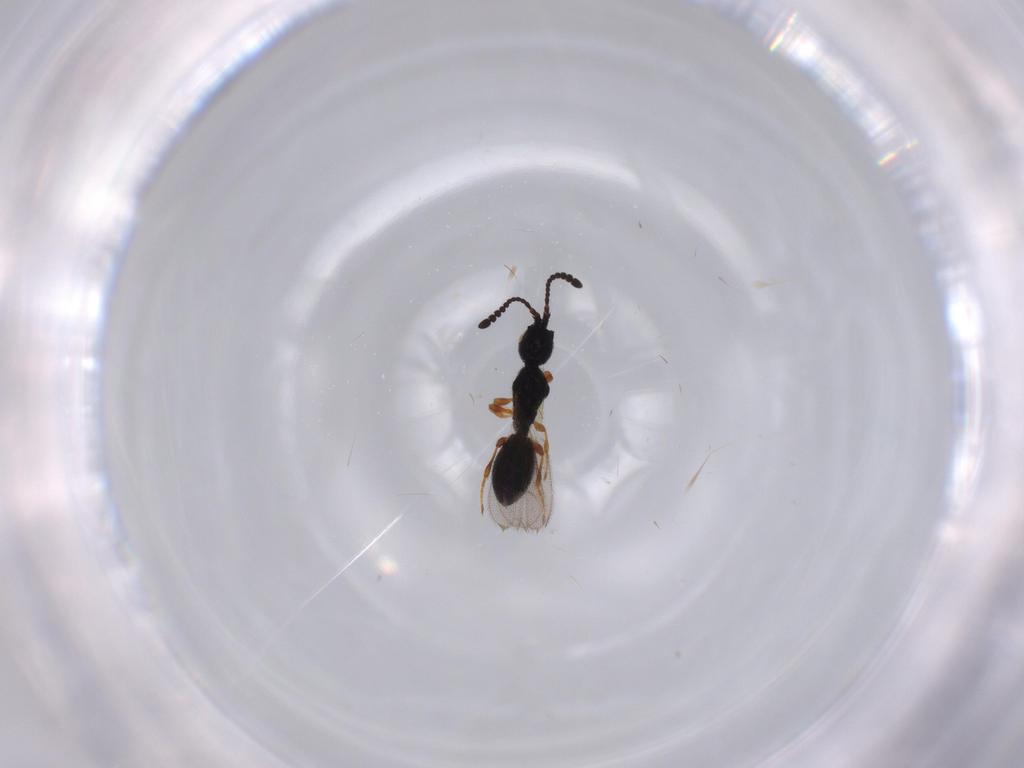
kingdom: Animalia
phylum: Arthropoda
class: Insecta
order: Hymenoptera
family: Diapriidae
